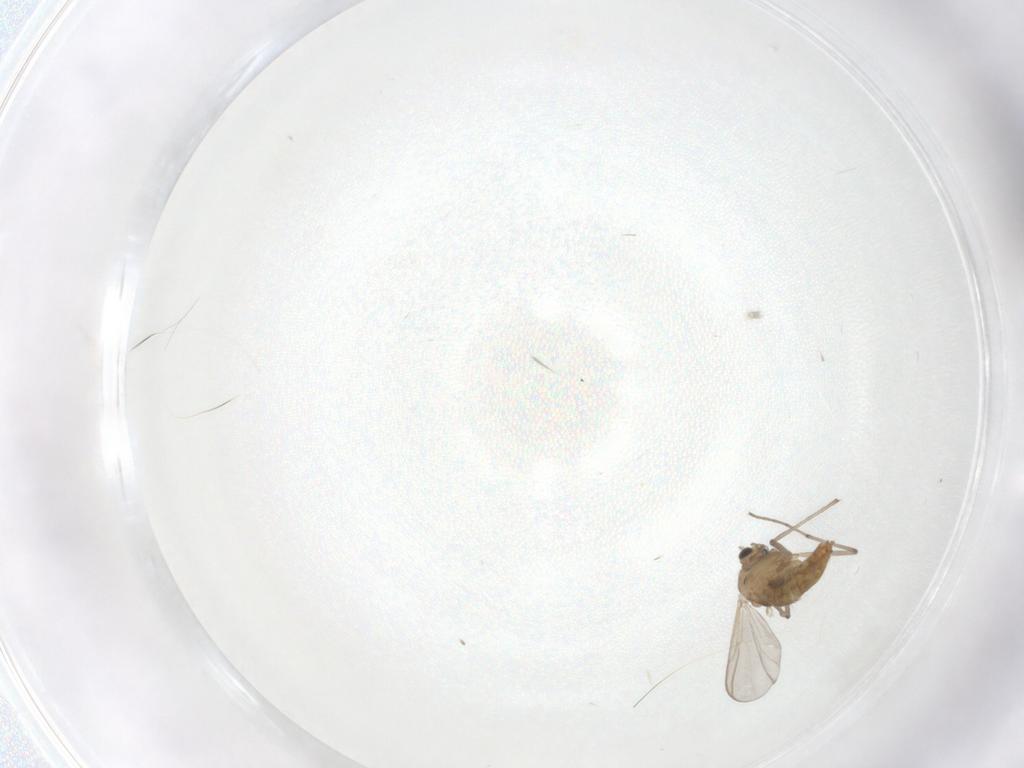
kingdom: Animalia
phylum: Arthropoda
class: Insecta
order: Diptera
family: Chironomidae
